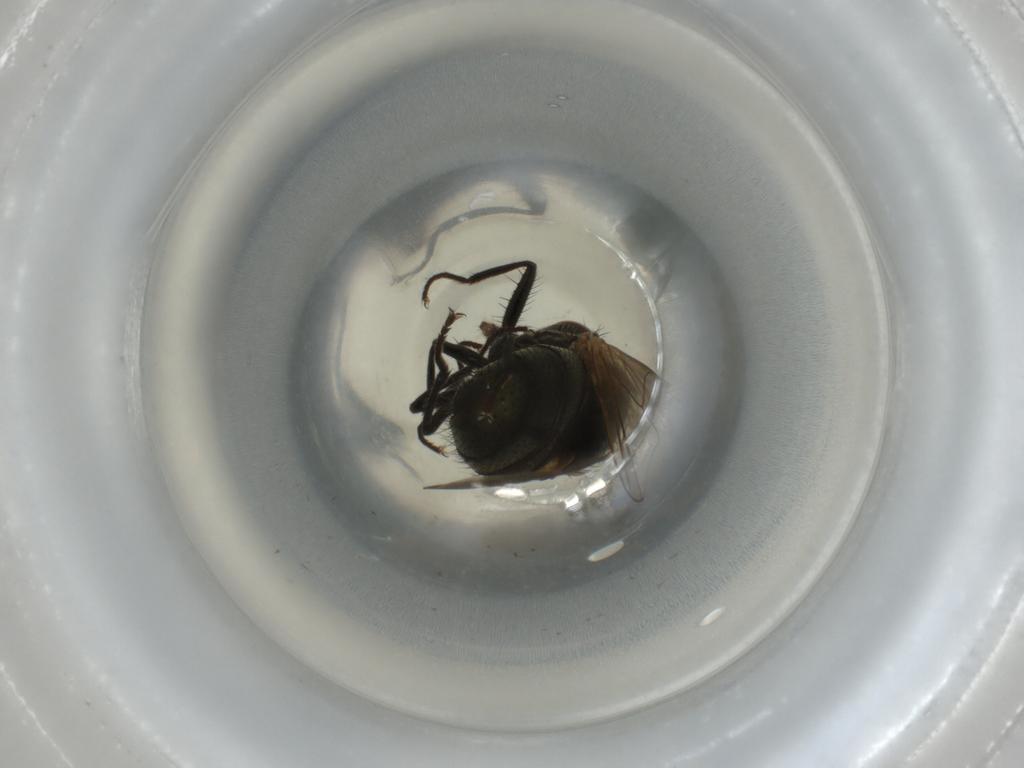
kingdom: Animalia
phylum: Arthropoda
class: Insecta
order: Diptera
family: Muscidae
